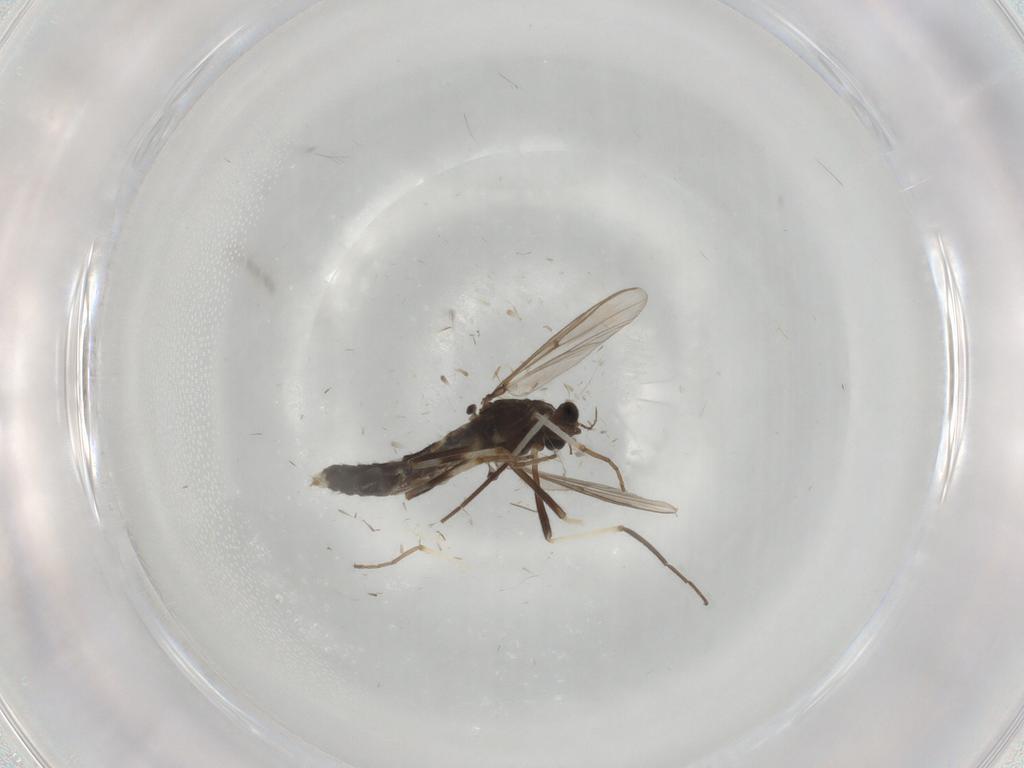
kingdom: Animalia
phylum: Arthropoda
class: Insecta
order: Diptera
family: Chironomidae
